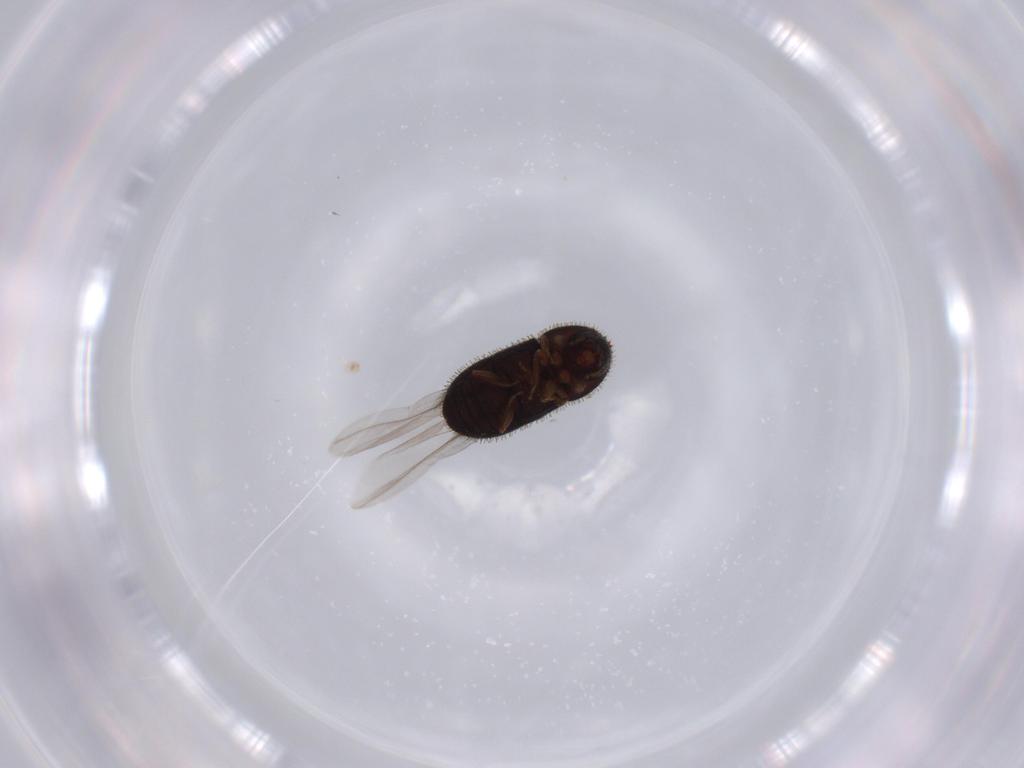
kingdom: Animalia
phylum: Arthropoda
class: Insecta
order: Coleoptera
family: Curculionidae
